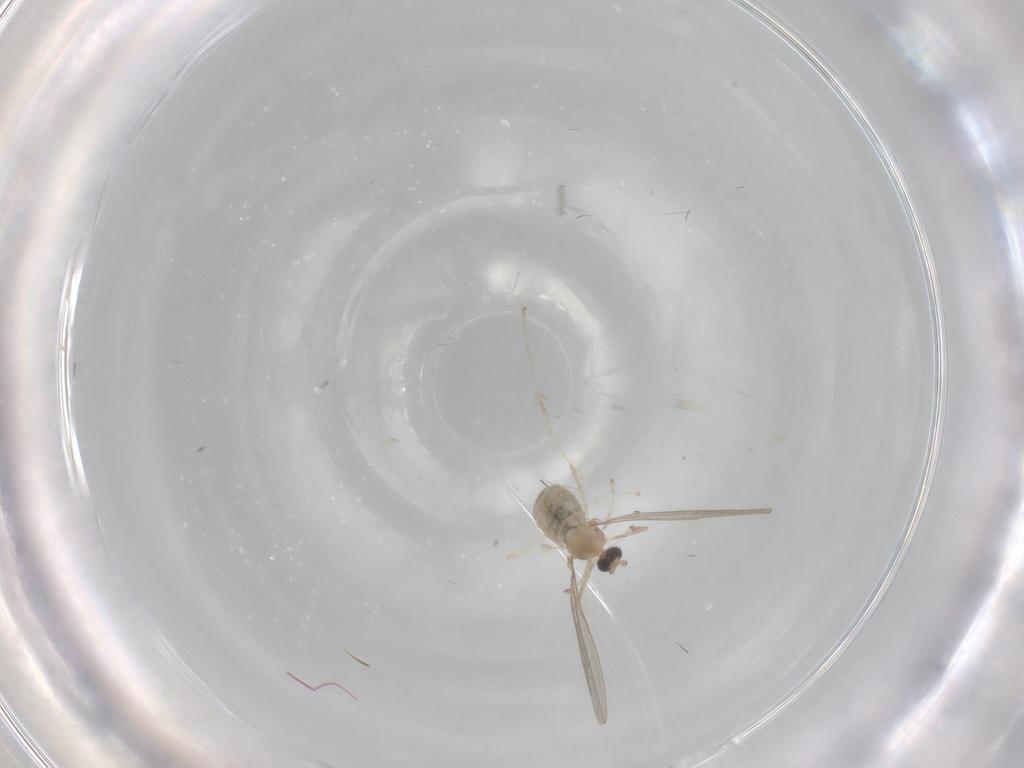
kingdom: Animalia
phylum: Arthropoda
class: Insecta
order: Diptera
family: Cecidomyiidae
